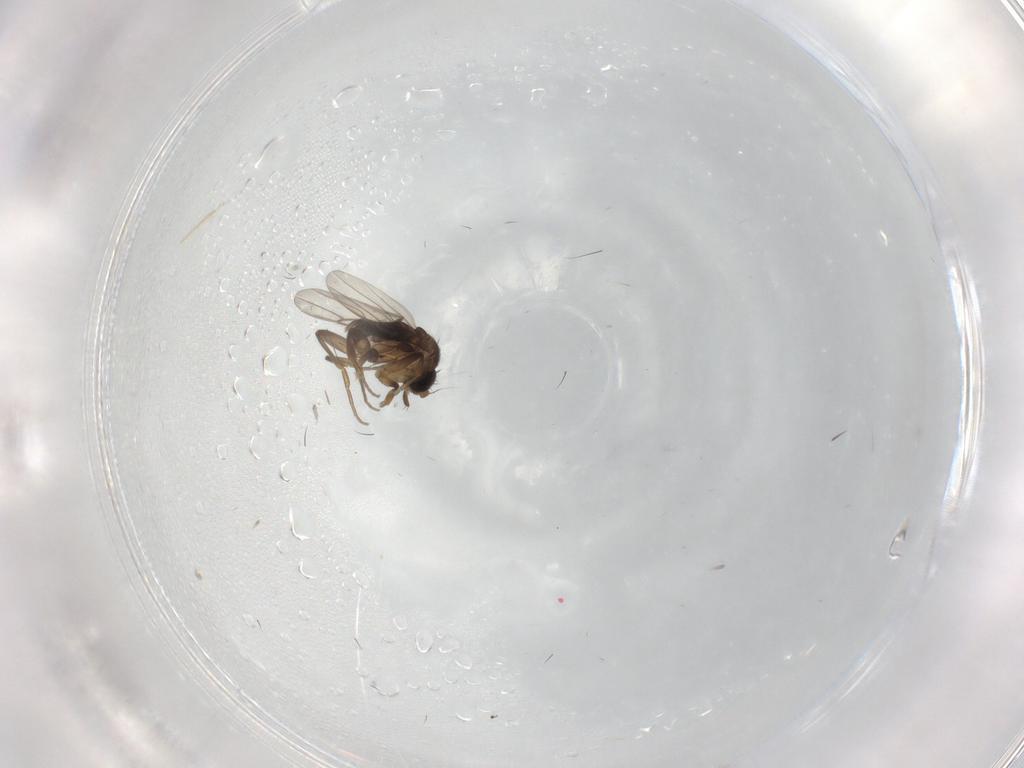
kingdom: Animalia
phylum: Arthropoda
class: Insecta
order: Diptera
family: Chironomidae
